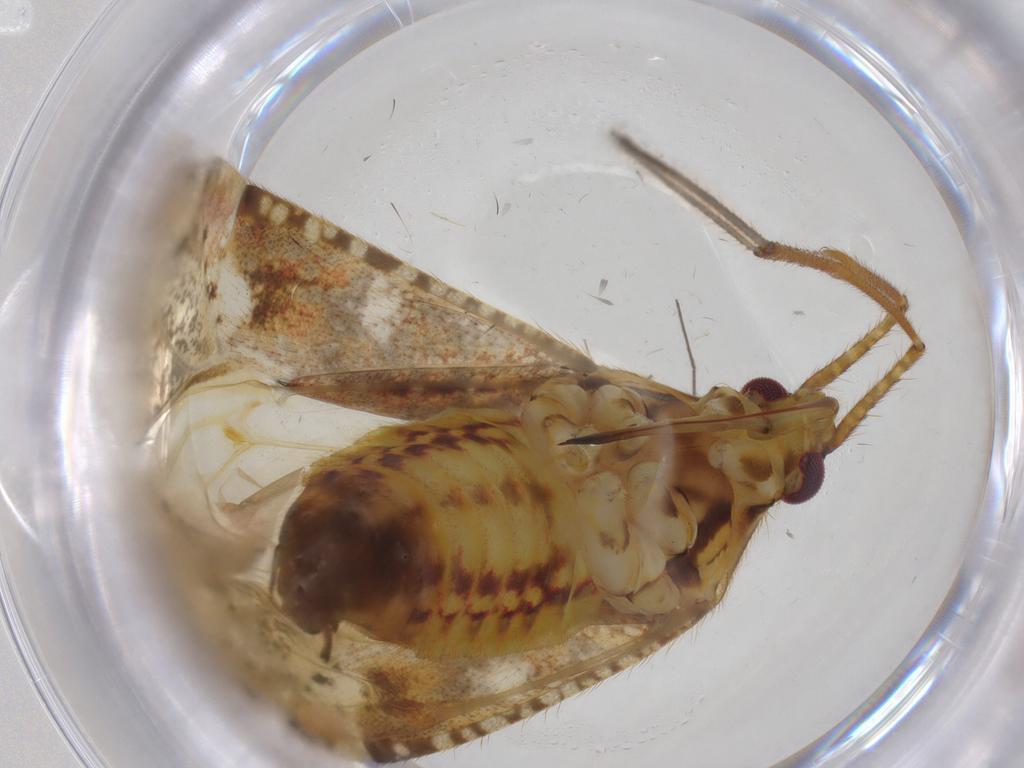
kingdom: Animalia
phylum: Arthropoda
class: Insecta
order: Hemiptera
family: Miridae
